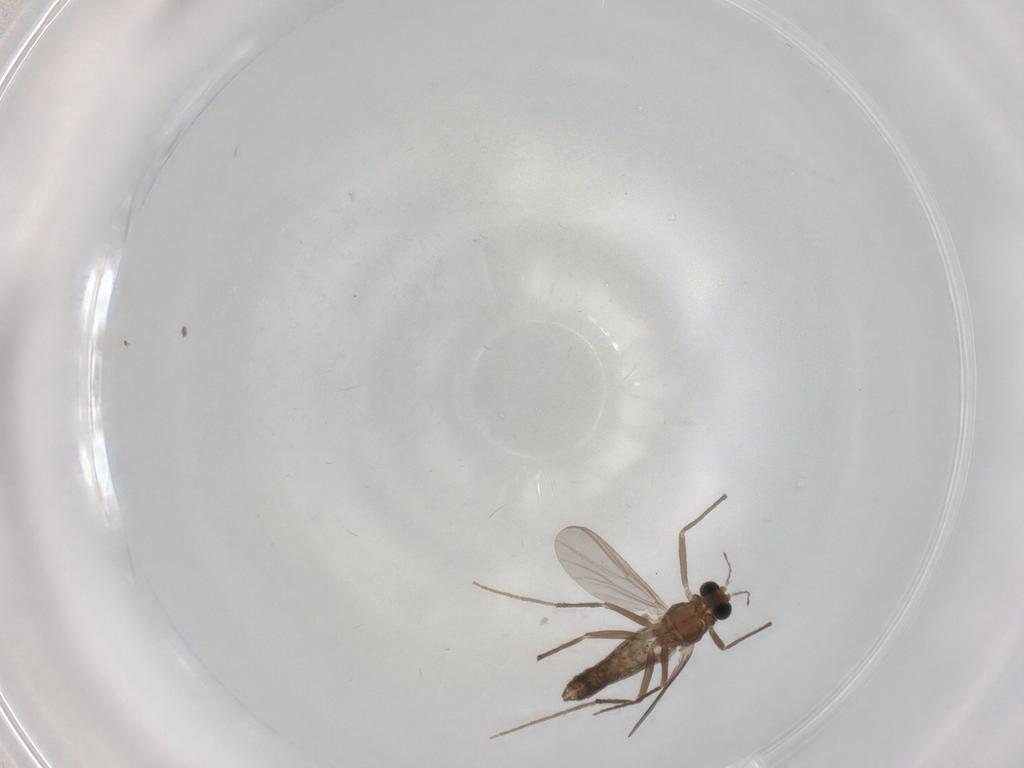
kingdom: Animalia
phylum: Arthropoda
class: Insecta
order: Diptera
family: Chironomidae
